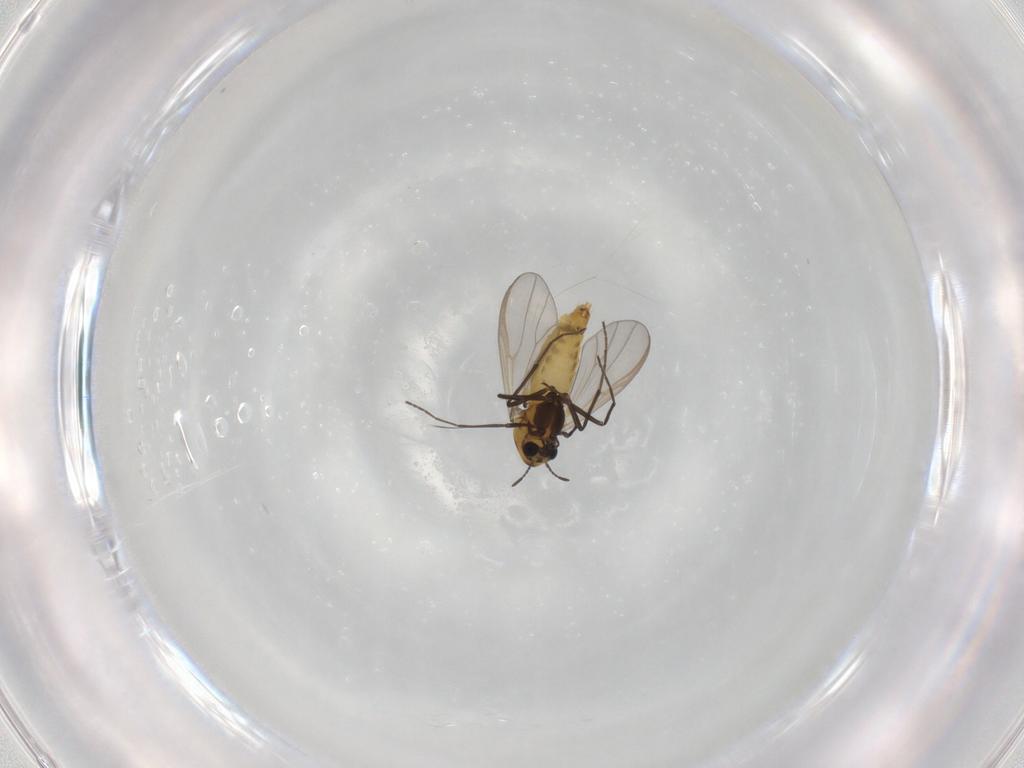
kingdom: Animalia
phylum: Arthropoda
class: Insecta
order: Diptera
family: Chironomidae
